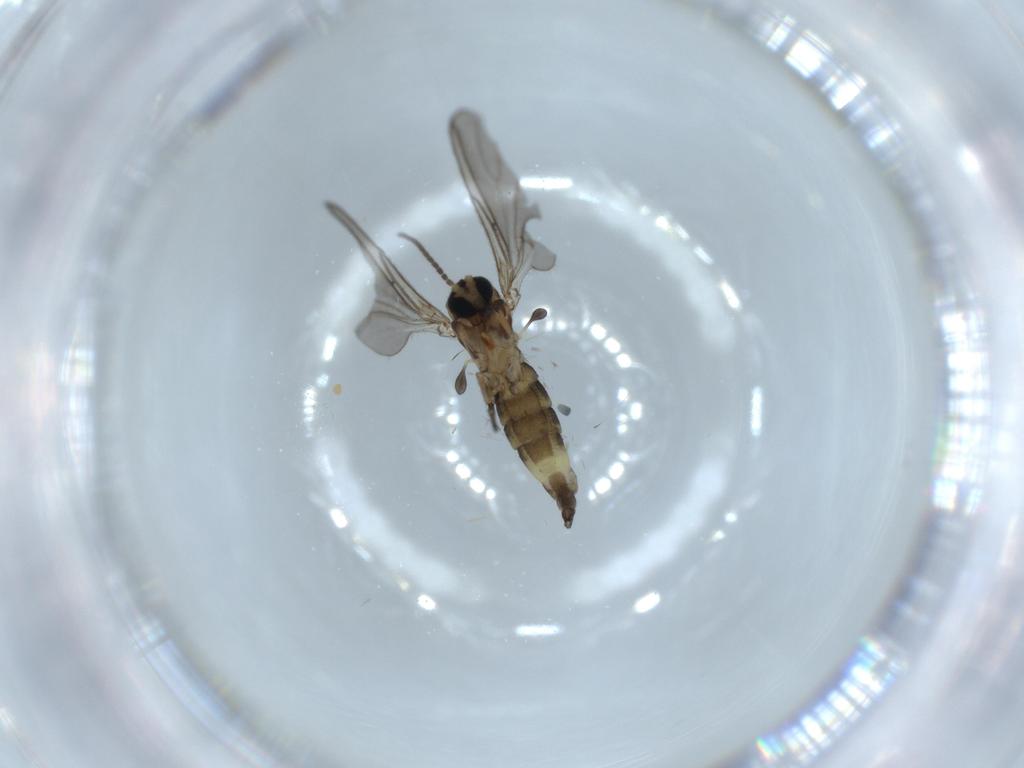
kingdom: Animalia
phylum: Arthropoda
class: Insecta
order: Diptera
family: Sciaridae
